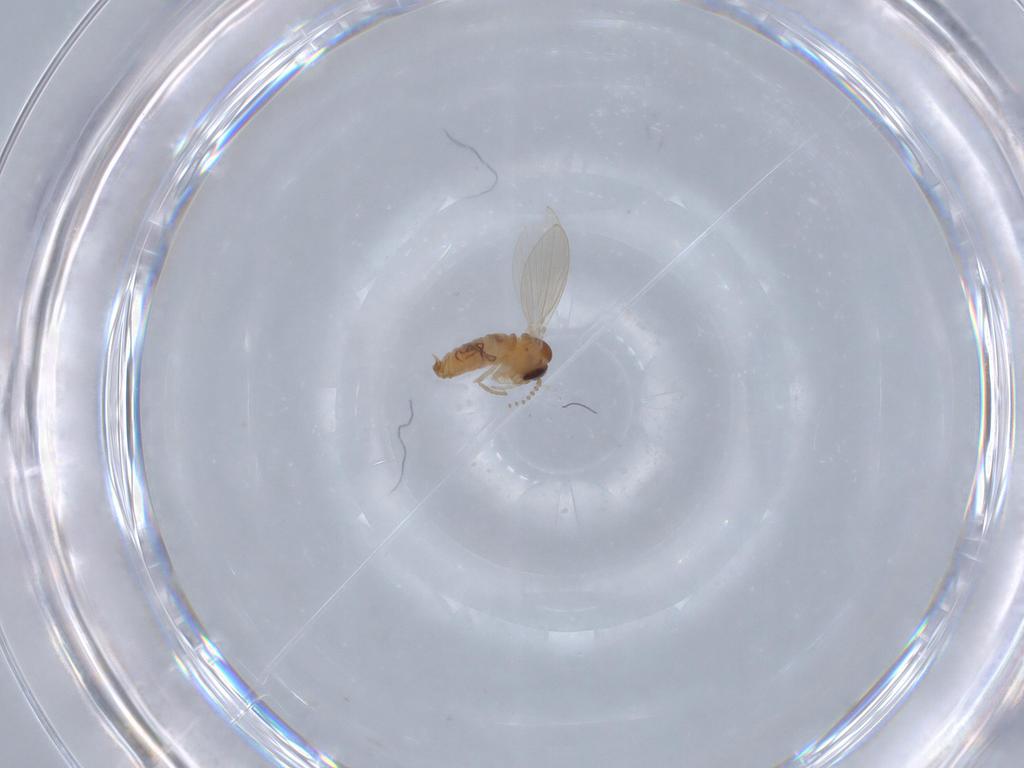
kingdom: Animalia
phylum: Arthropoda
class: Insecta
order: Diptera
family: Psychodidae
